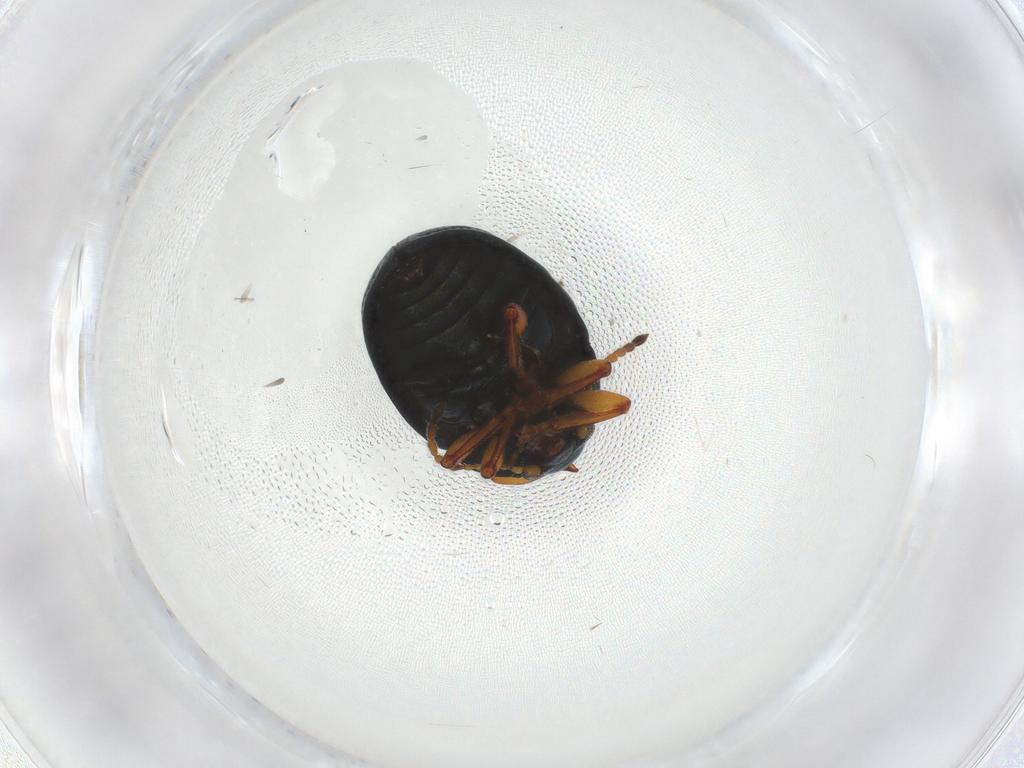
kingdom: Animalia
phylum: Arthropoda
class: Insecta
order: Coleoptera
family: Chrysomelidae
